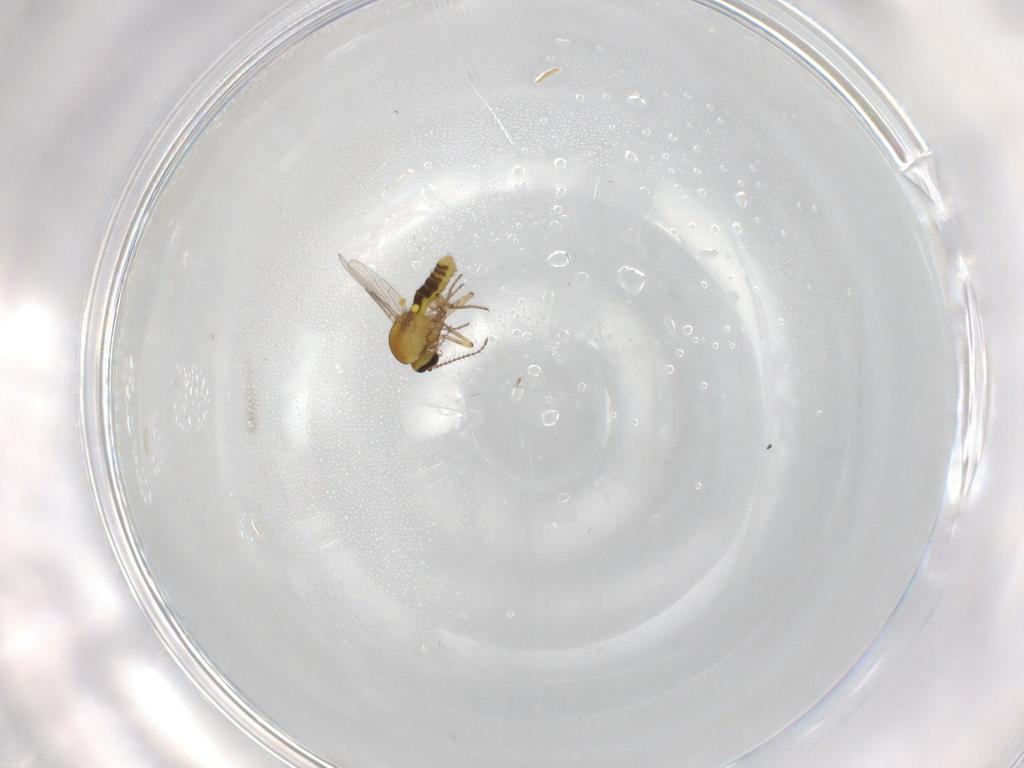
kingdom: Animalia
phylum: Arthropoda
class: Insecta
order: Diptera
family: Ceratopogonidae
